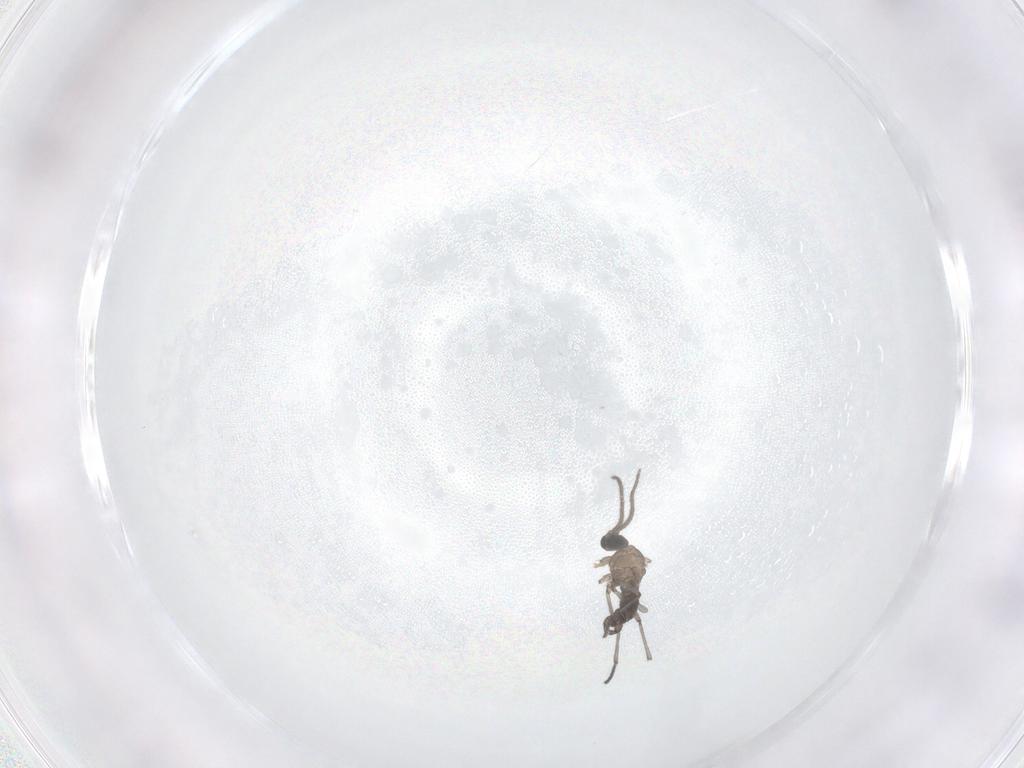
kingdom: Animalia
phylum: Arthropoda
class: Insecta
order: Diptera
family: Sciaridae
